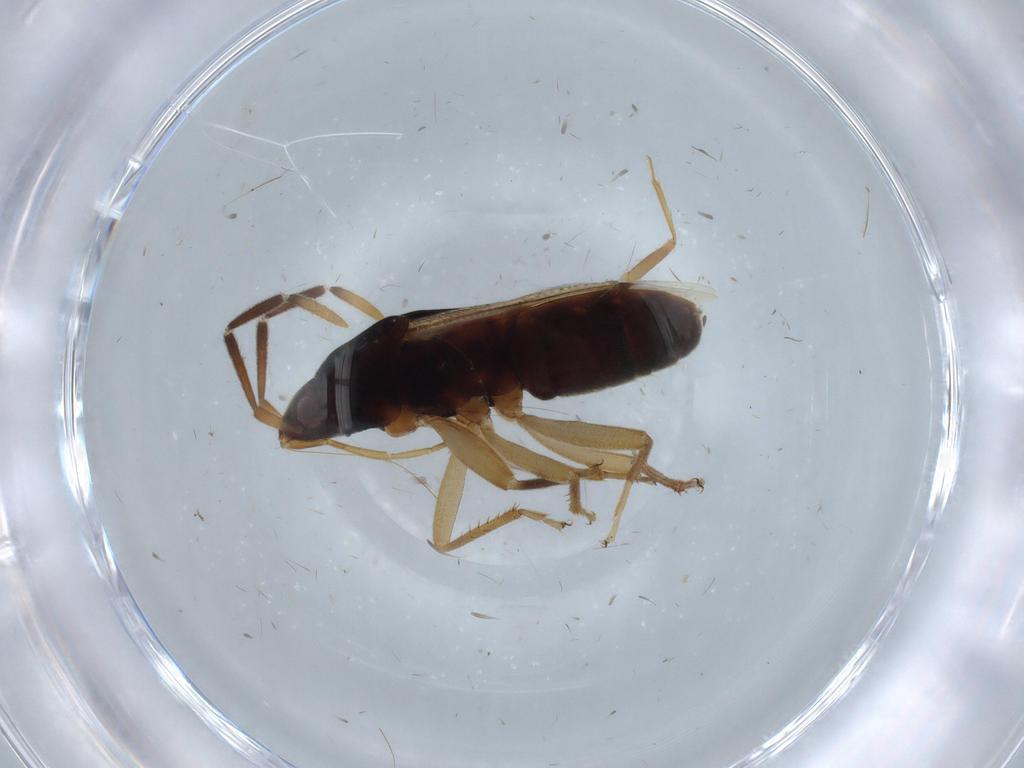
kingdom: Animalia
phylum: Arthropoda
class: Insecta
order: Hemiptera
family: Rhyparochromidae
